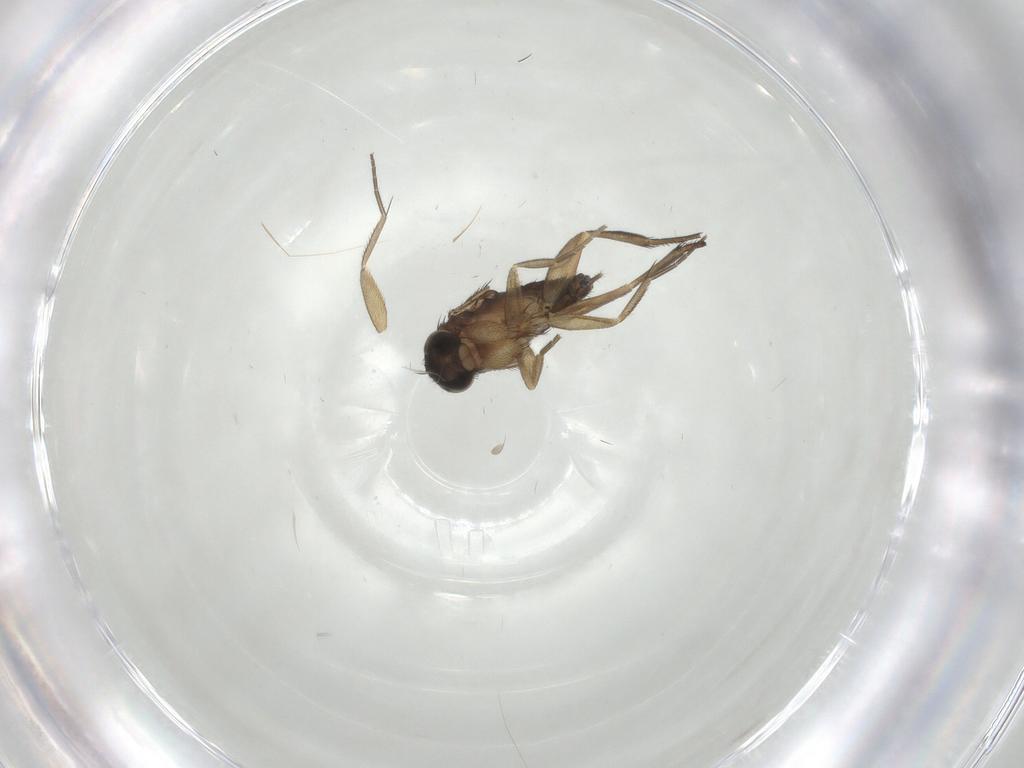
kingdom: Animalia
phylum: Arthropoda
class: Insecta
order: Diptera
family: Phoridae
